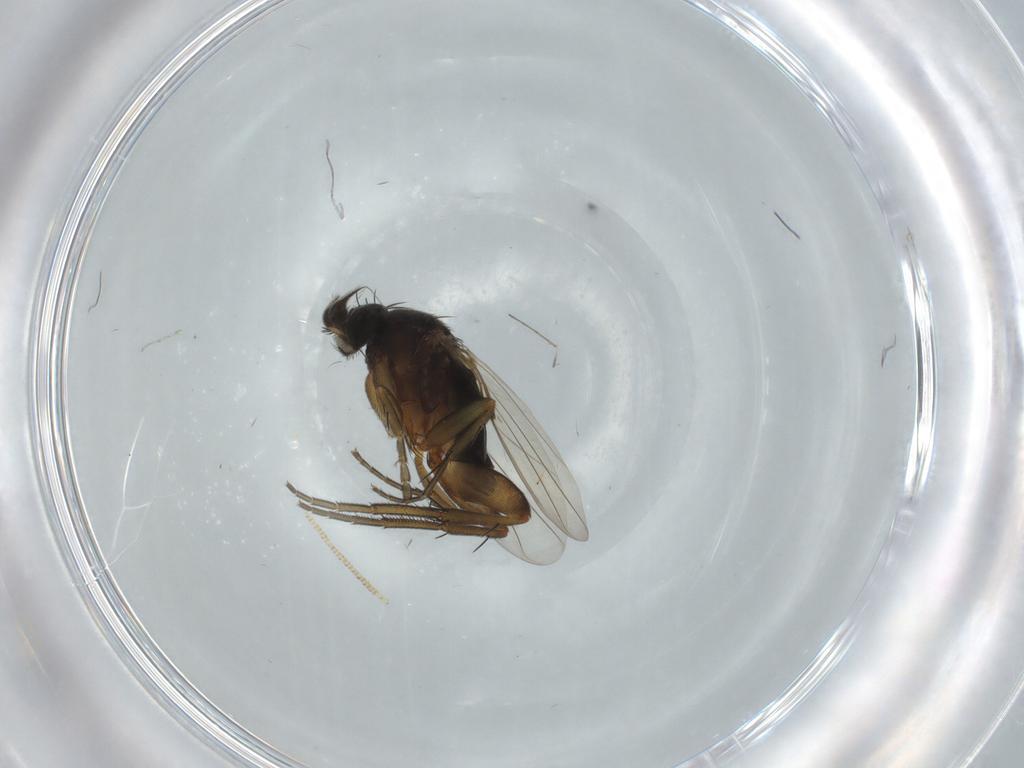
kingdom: Animalia
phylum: Arthropoda
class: Insecta
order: Diptera
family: Phoridae
